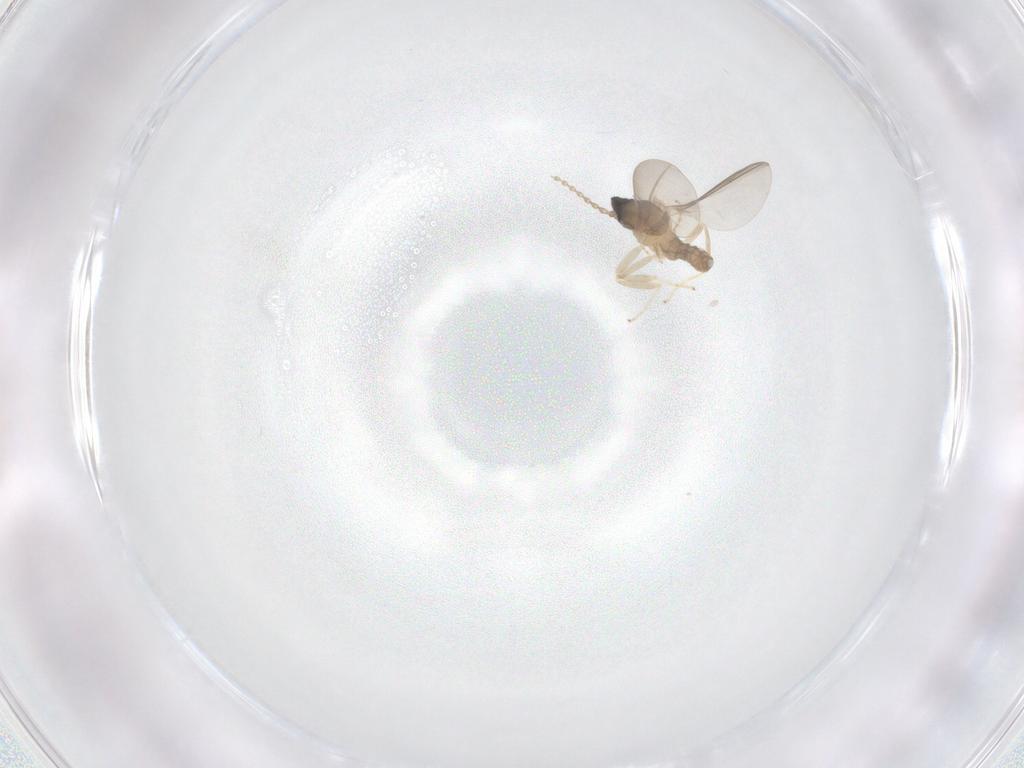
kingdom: Animalia
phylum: Arthropoda
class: Insecta
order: Diptera
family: Cecidomyiidae
